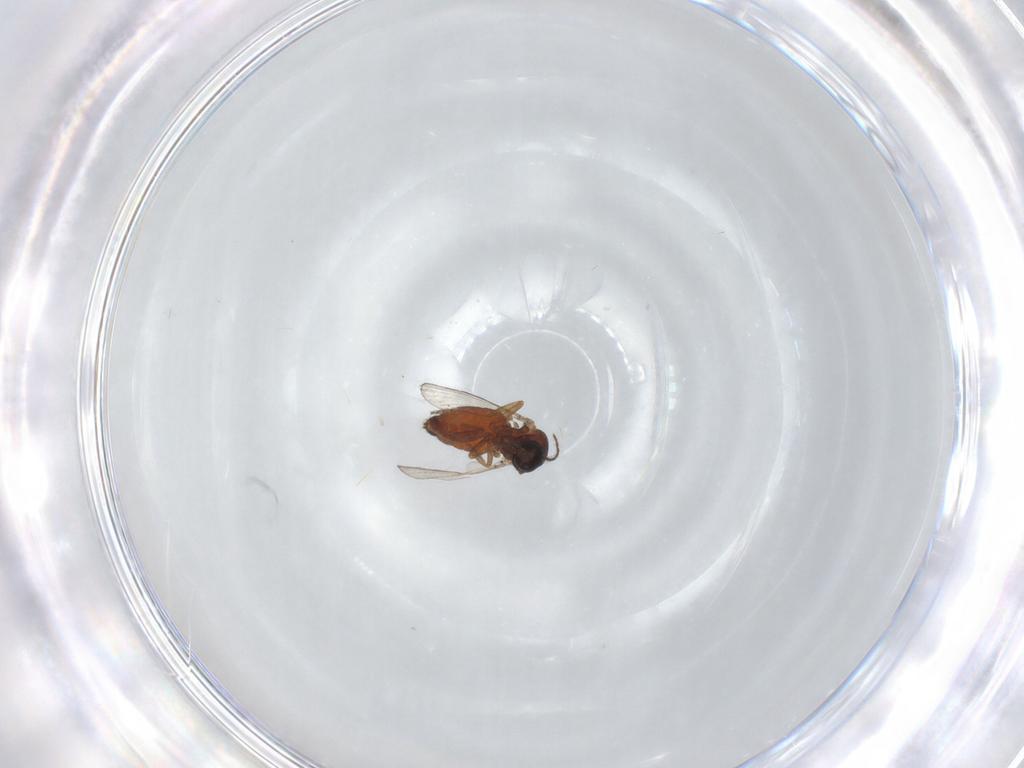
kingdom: Animalia
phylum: Arthropoda
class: Insecta
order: Diptera
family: Ceratopogonidae
